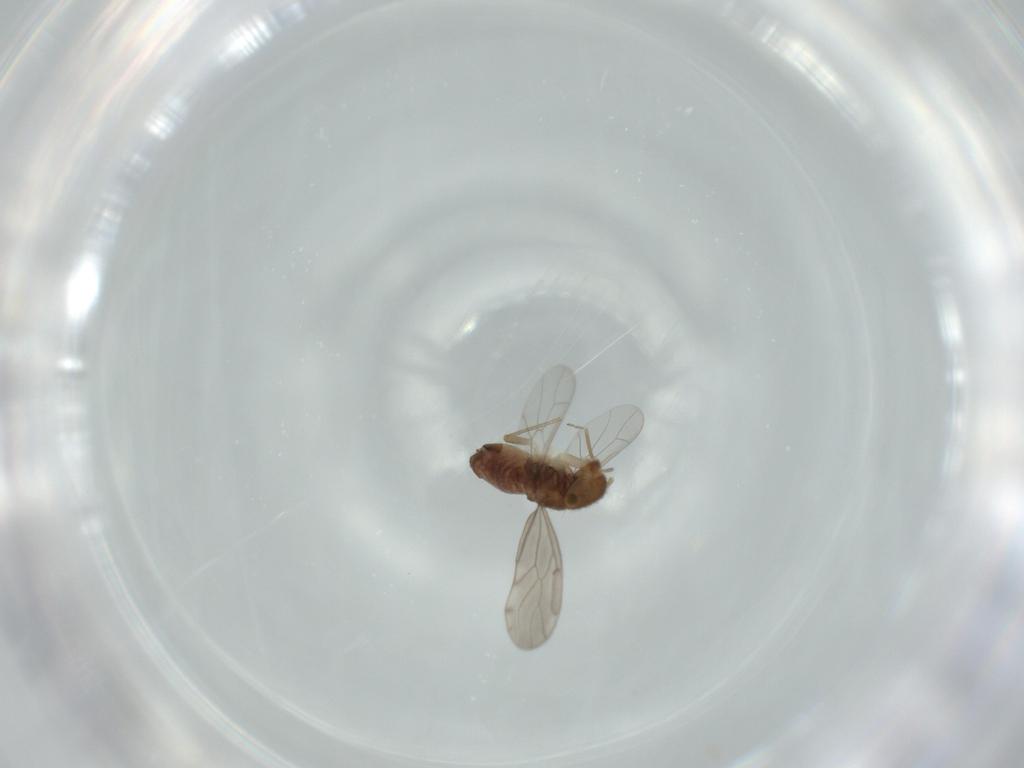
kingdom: Animalia
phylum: Arthropoda
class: Insecta
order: Psocodea
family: Ectopsocidae
